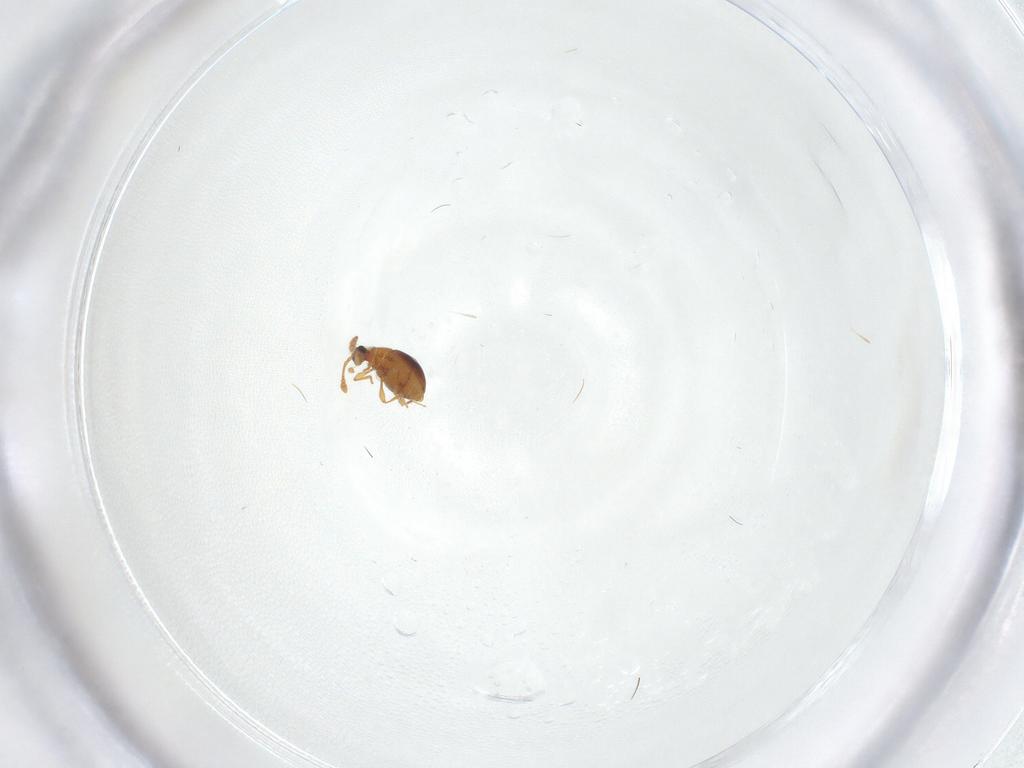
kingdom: Animalia
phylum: Arthropoda
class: Insecta
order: Coleoptera
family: Staphylinidae
